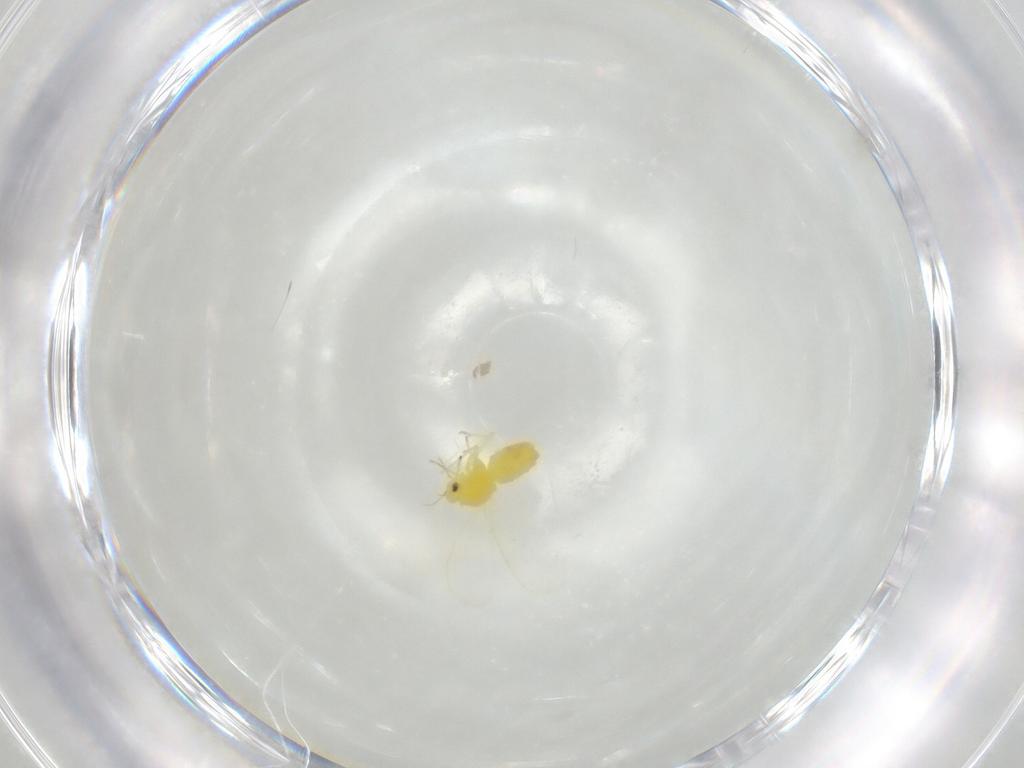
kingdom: Animalia
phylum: Arthropoda
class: Insecta
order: Hemiptera
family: Aleyrodidae
